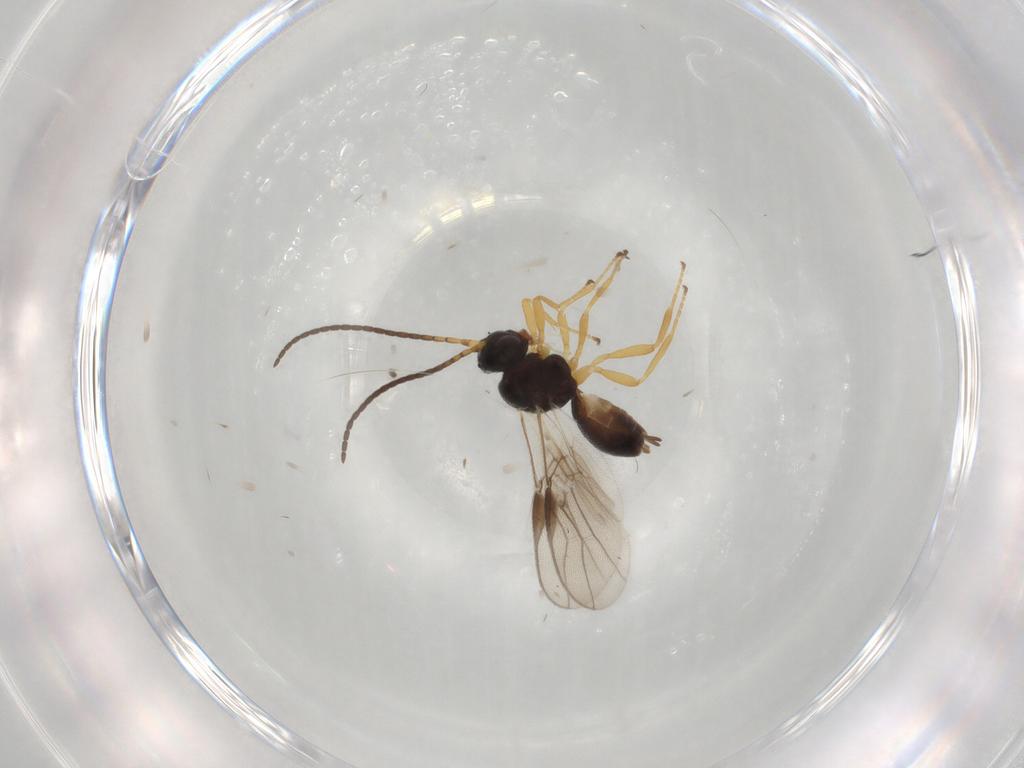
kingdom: Animalia
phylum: Arthropoda
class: Insecta
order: Hymenoptera
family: Braconidae
